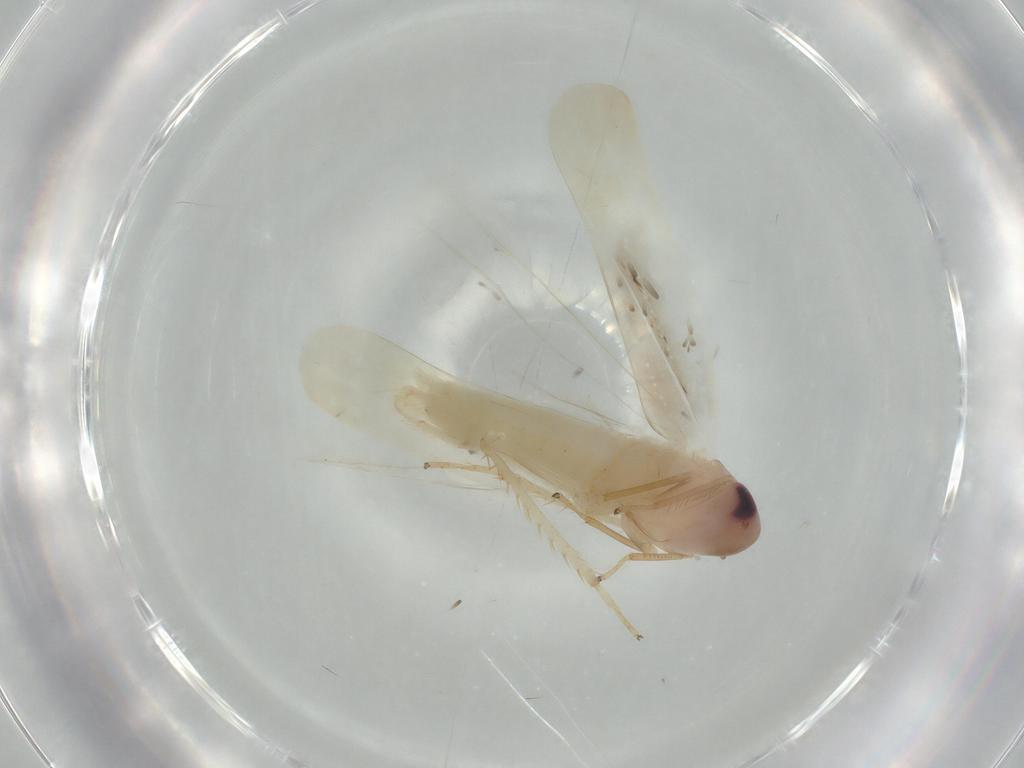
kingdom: Animalia
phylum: Arthropoda
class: Insecta
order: Hemiptera
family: Cicadellidae
